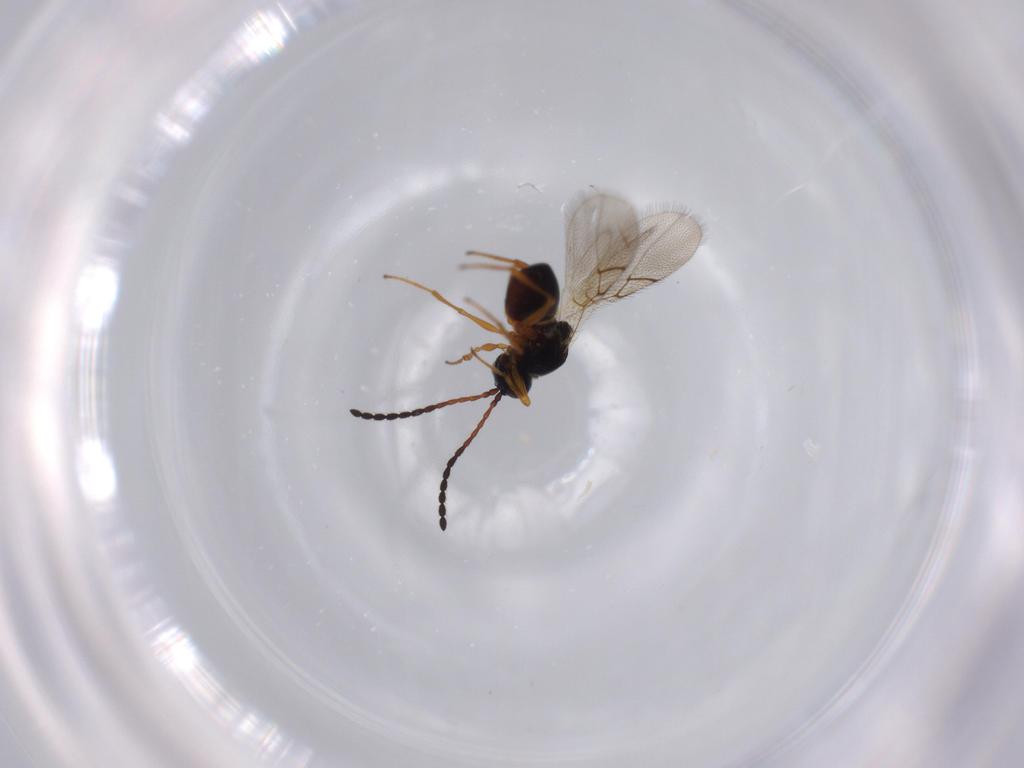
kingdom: Animalia
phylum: Arthropoda
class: Insecta
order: Hymenoptera
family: Figitidae
